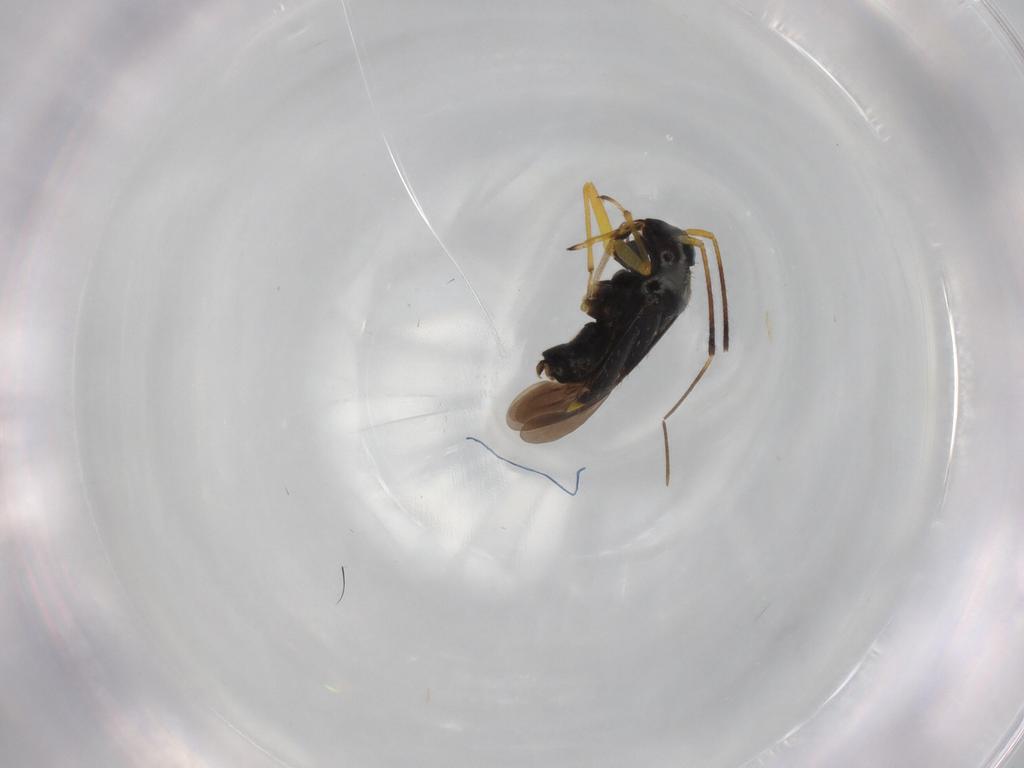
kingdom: Animalia
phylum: Arthropoda
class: Insecta
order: Hemiptera
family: Miridae
